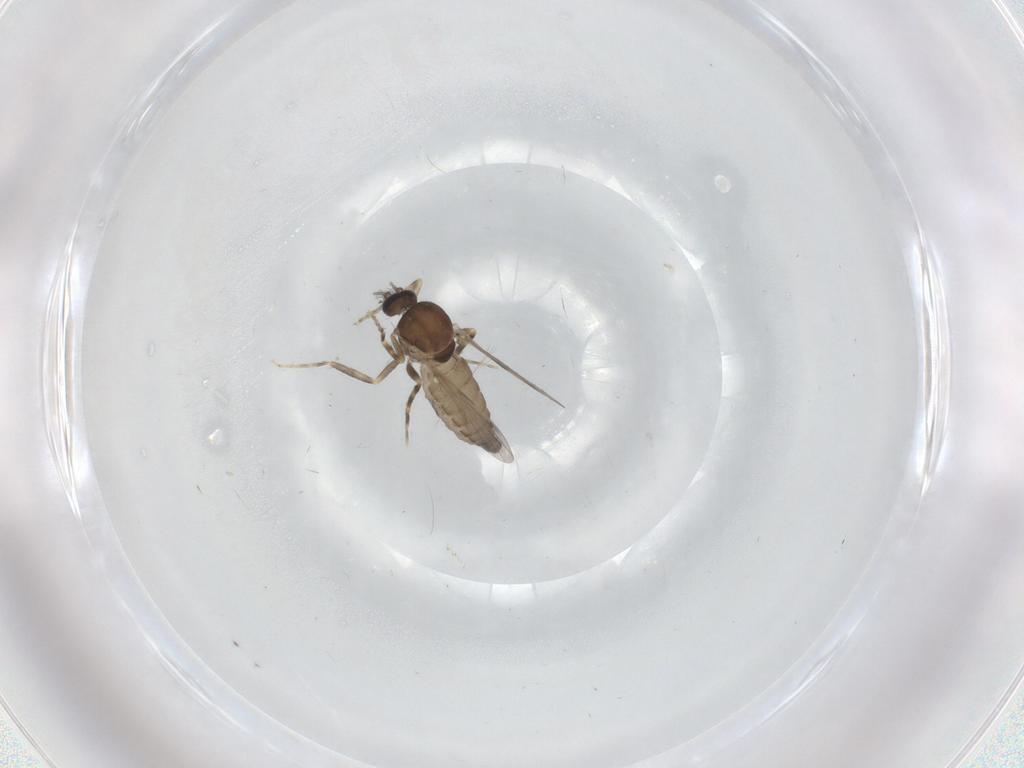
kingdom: Animalia
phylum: Arthropoda
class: Insecta
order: Diptera
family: Ceratopogonidae
